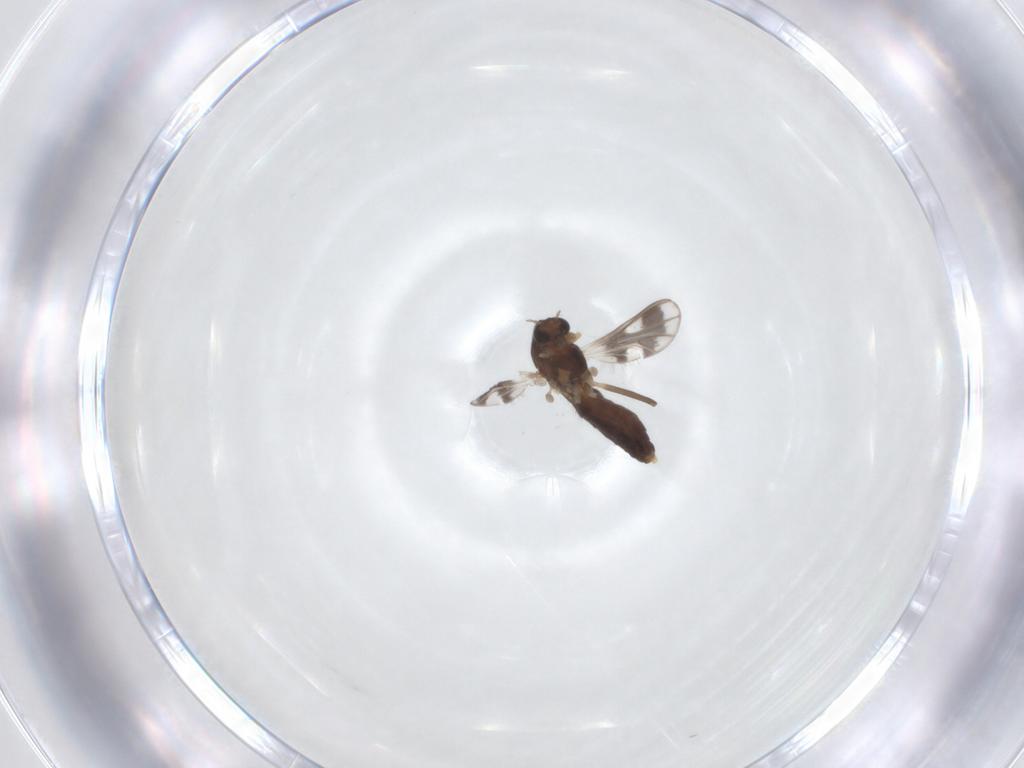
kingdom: Animalia
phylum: Arthropoda
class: Insecta
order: Diptera
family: Chironomidae
